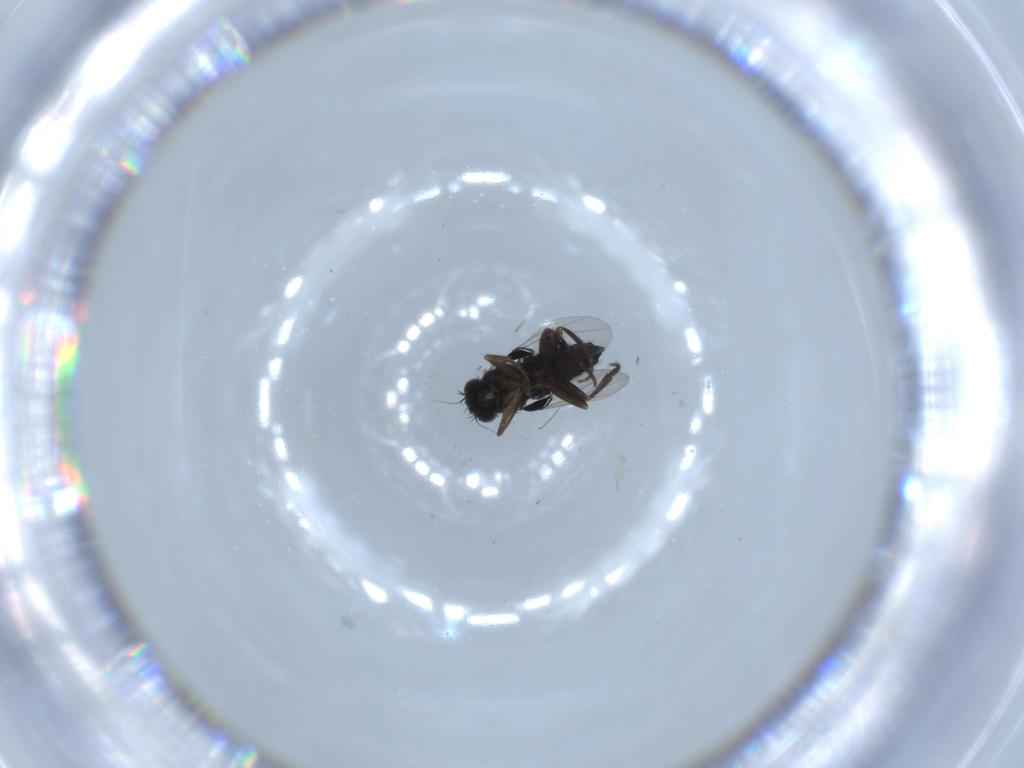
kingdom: Animalia
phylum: Arthropoda
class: Insecta
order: Diptera
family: Phoridae
